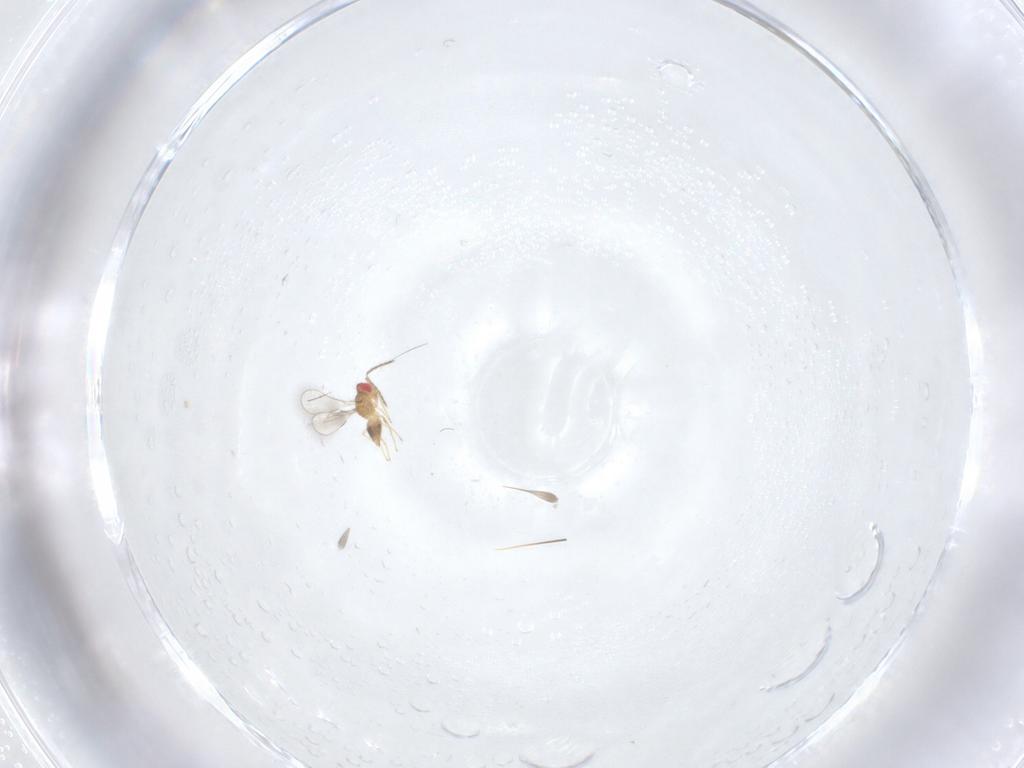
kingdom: Animalia
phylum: Arthropoda
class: Insecta
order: Hymenoptera
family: Eulophidae
